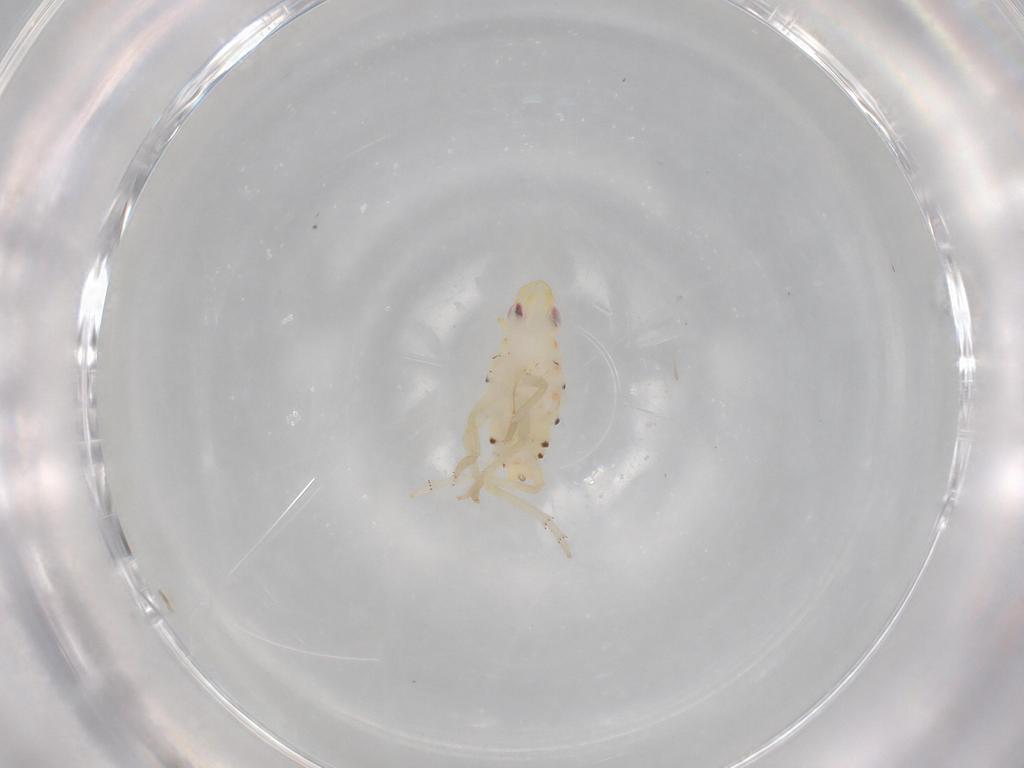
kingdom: Animalia
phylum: Arthropoda
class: Insecta
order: Hemiptera
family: Tropiduchidae
